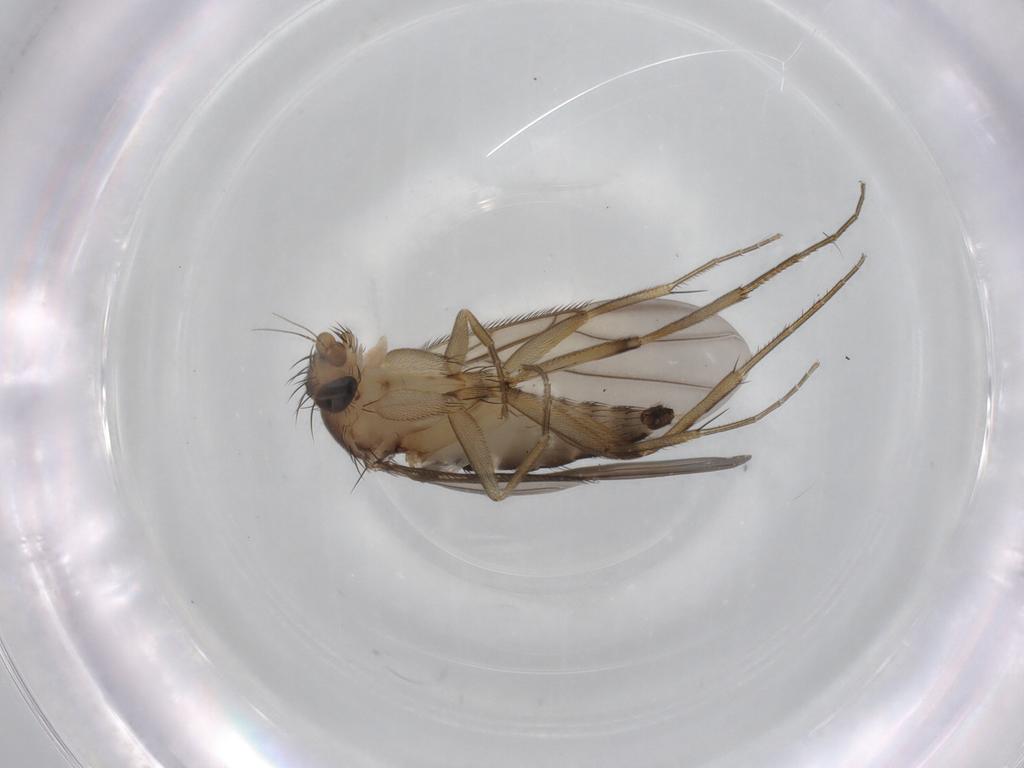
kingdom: Animalia
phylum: Arthropoda
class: Insecta
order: Diptera
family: Phoridae
